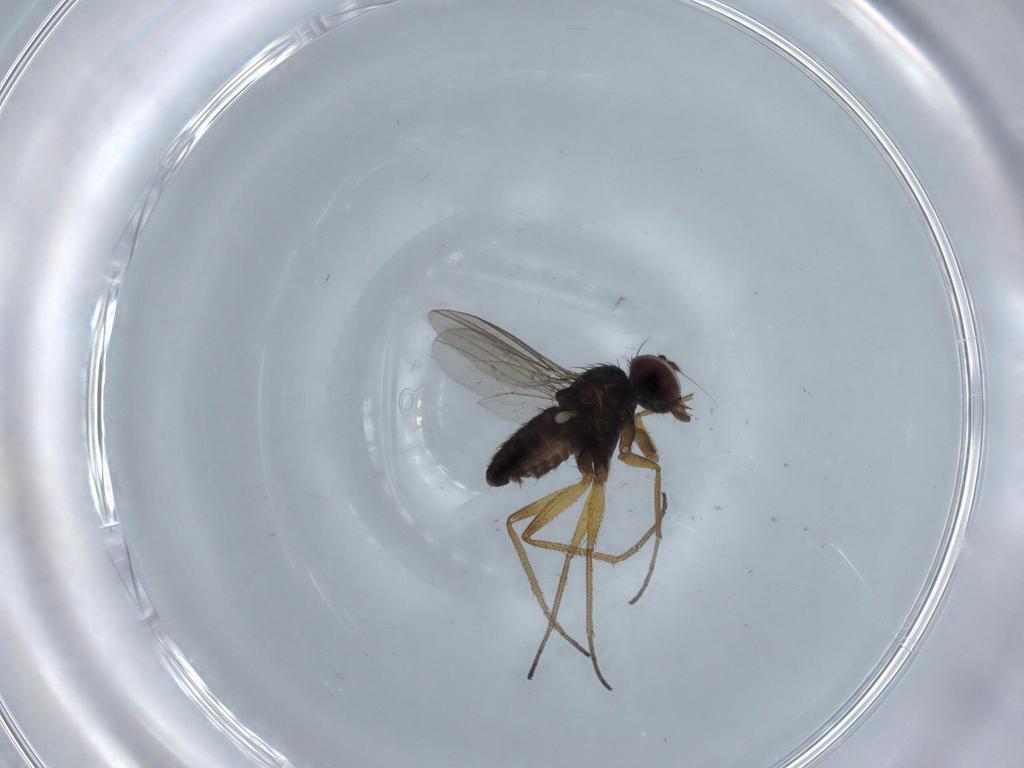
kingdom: Animalia
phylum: Arthropoda
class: Insecta
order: Diptera
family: Dolichopodidae
